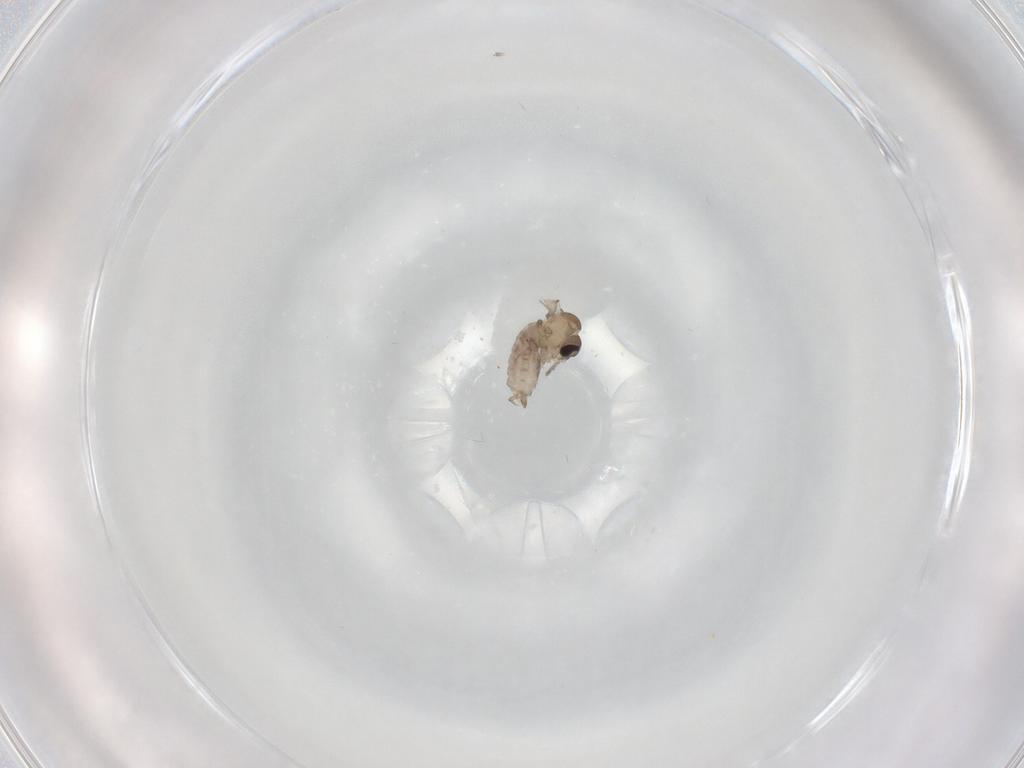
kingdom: Animalia
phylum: Arthropoda
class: Insecta
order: Diptera
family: Psychodidae
